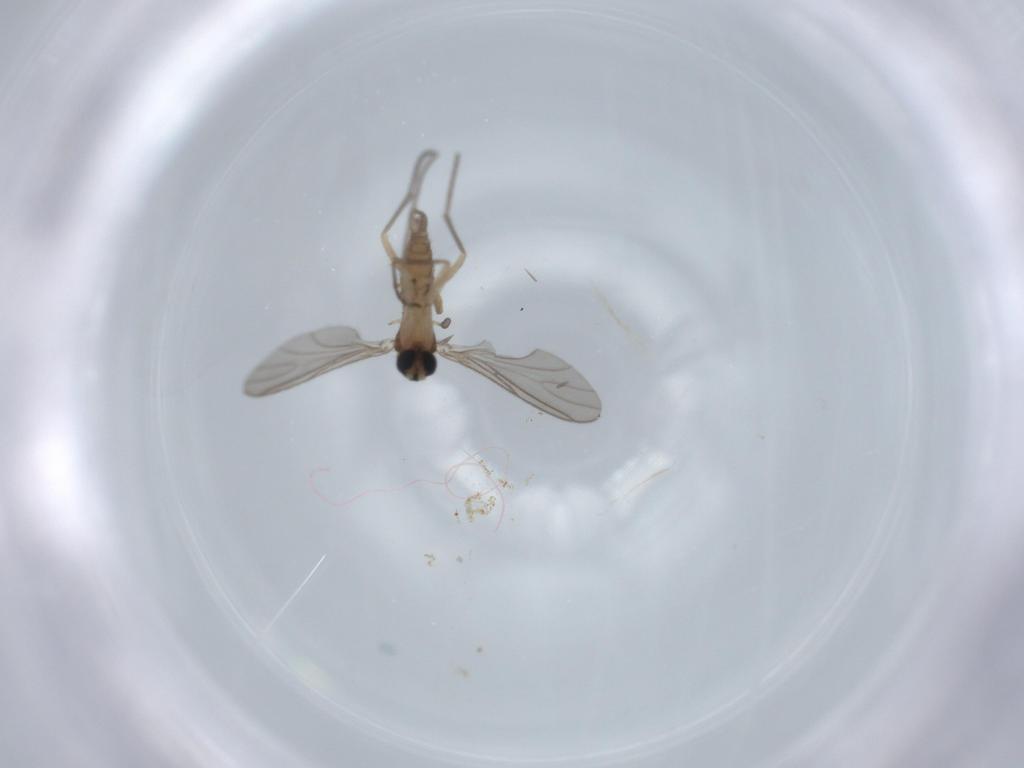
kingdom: Animalia
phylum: Arthropoda
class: Insecta
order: Diptera
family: Sciaridae
